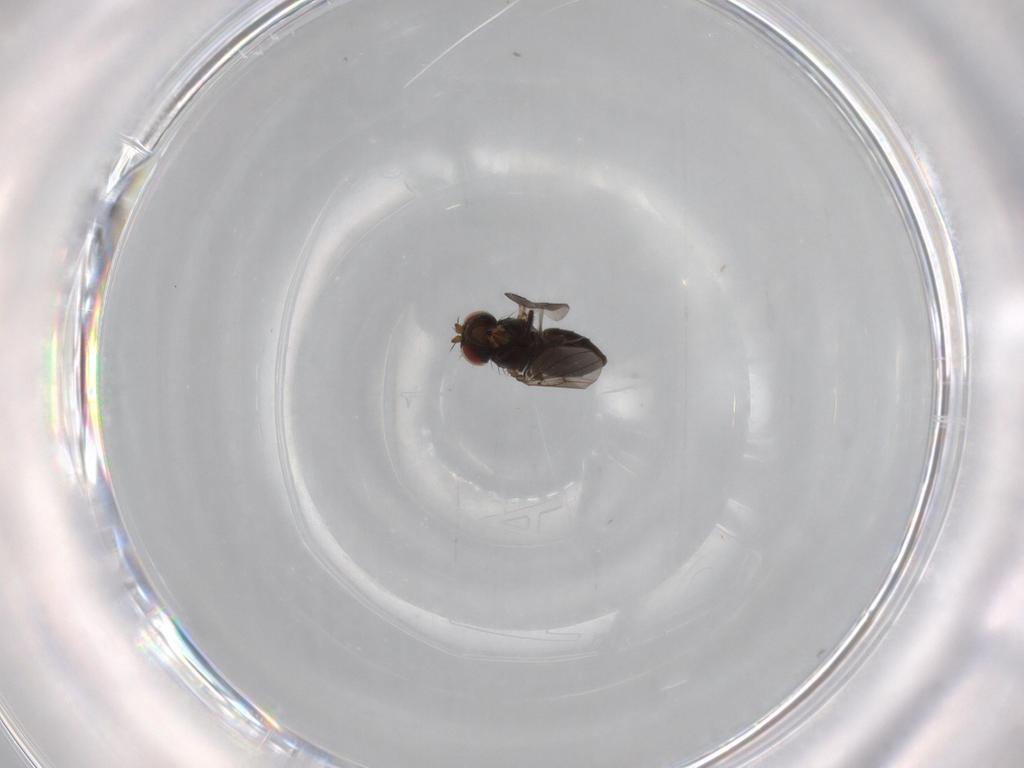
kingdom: Animalia
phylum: Arthropoda
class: Insecta
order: Diptera
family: Ephydridae
